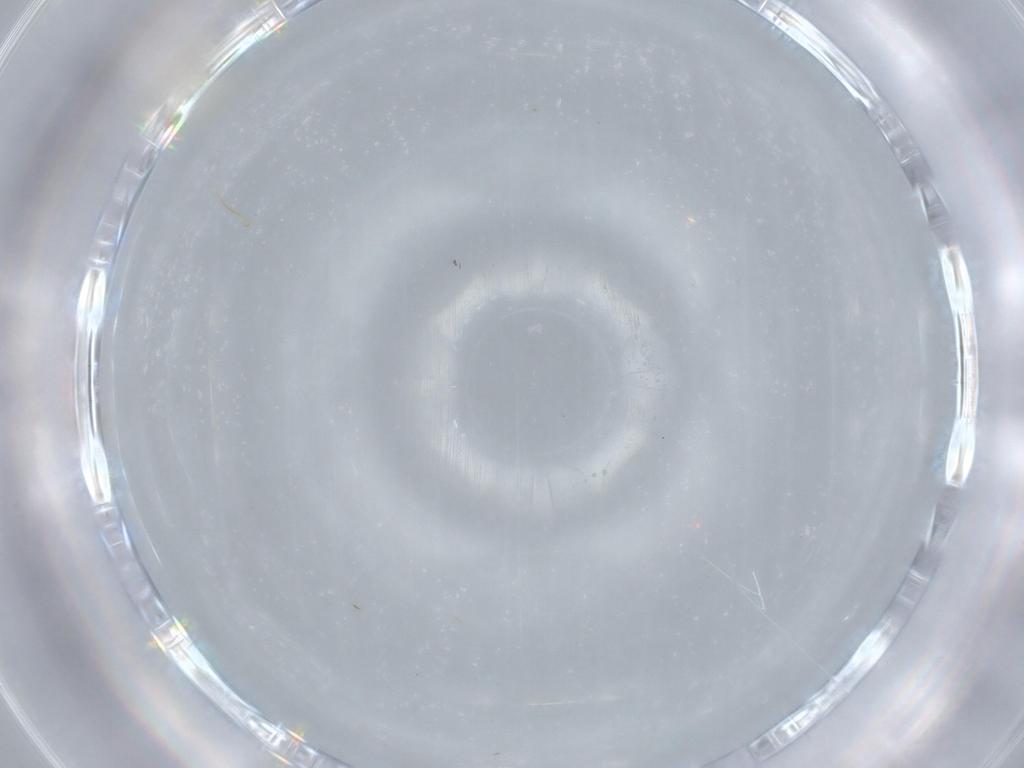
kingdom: Animalia
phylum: Arthropoda
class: Insecta
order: Diptera
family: Cecidomyiidae
